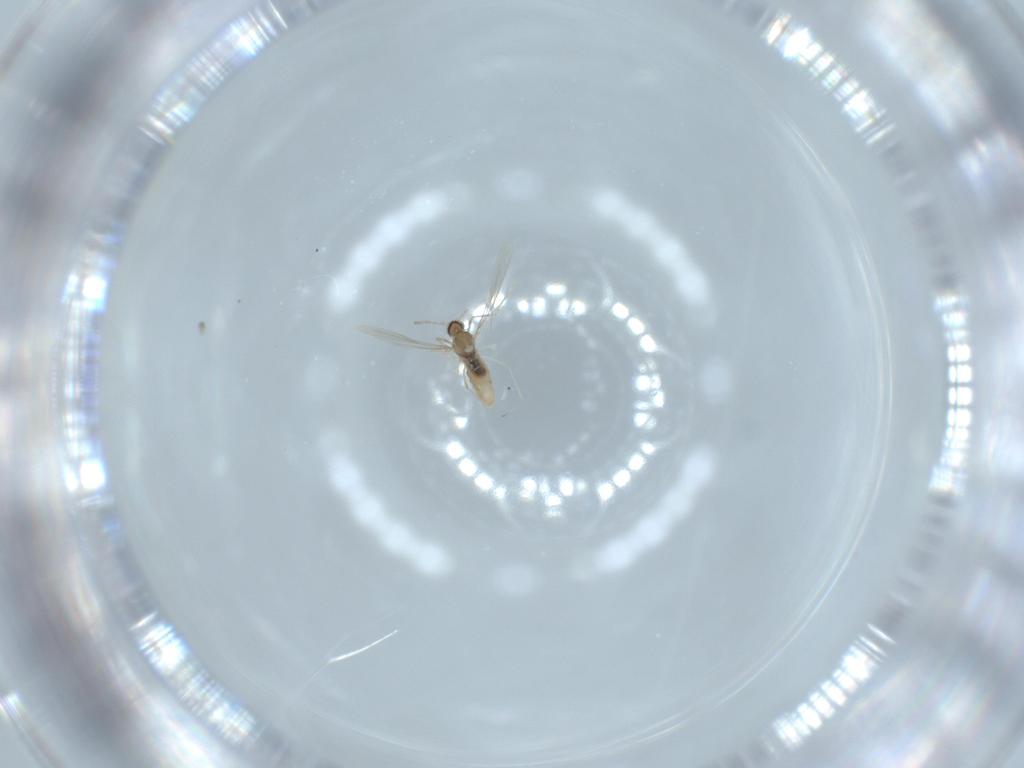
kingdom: Animalia
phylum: Arthropoda
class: Insecta
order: Diptera
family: Cecidomyiidae
